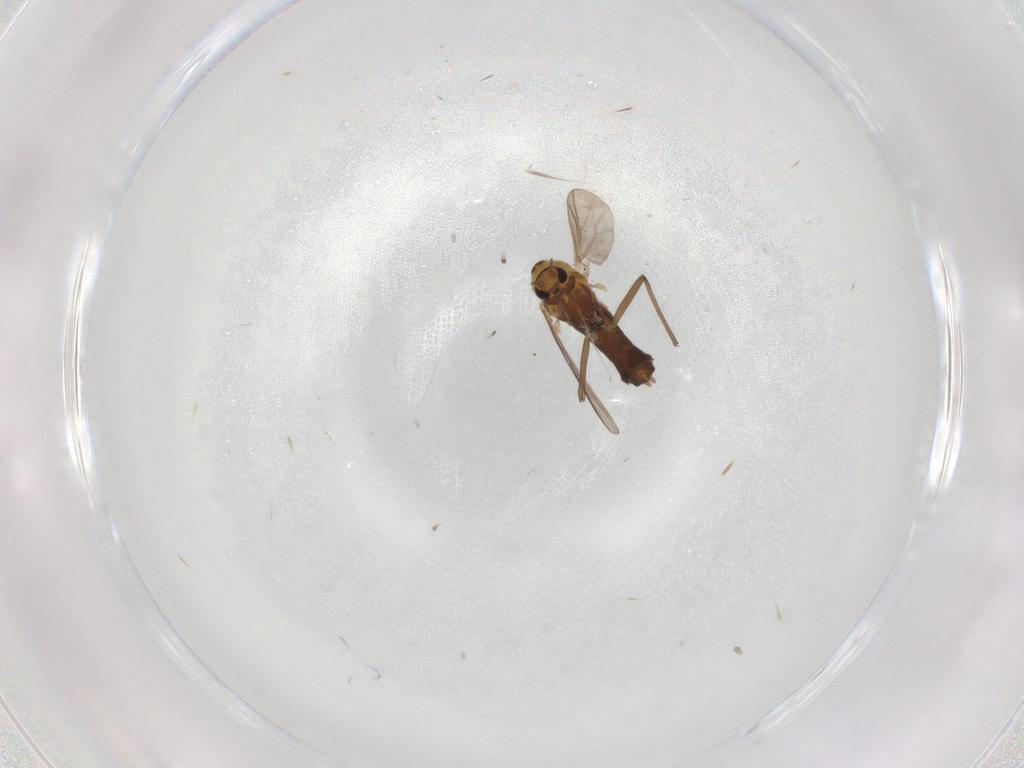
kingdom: Animalia
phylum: Arthropoda
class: Insecta
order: Diptera
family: Chironomidae
